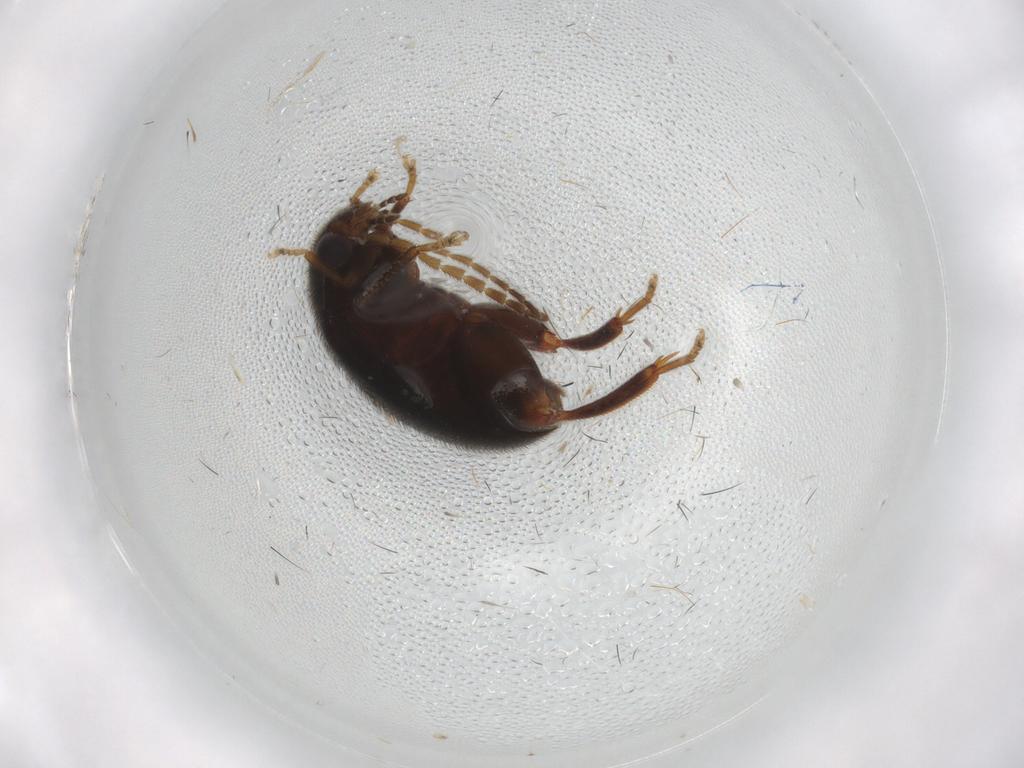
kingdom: Animalia
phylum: Arthropoda
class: Insecta
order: Coleoptera
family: Scirtidae
